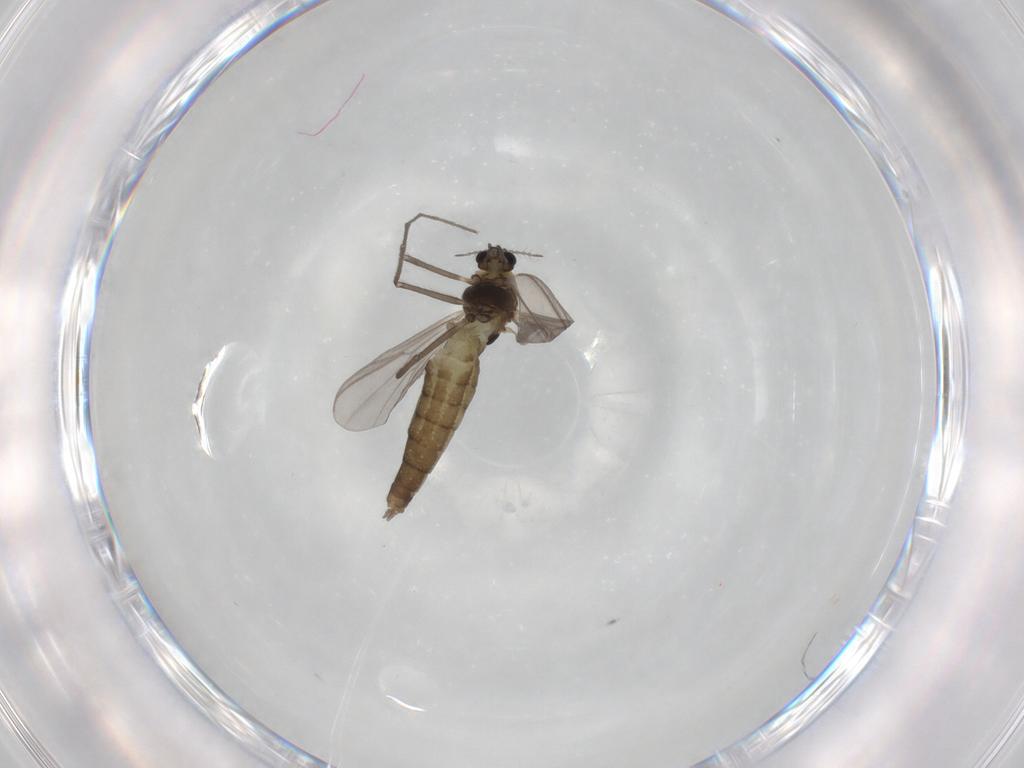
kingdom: Animalia
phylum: Arthropoda
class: Insecta
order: Diptera
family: Chironomidae
